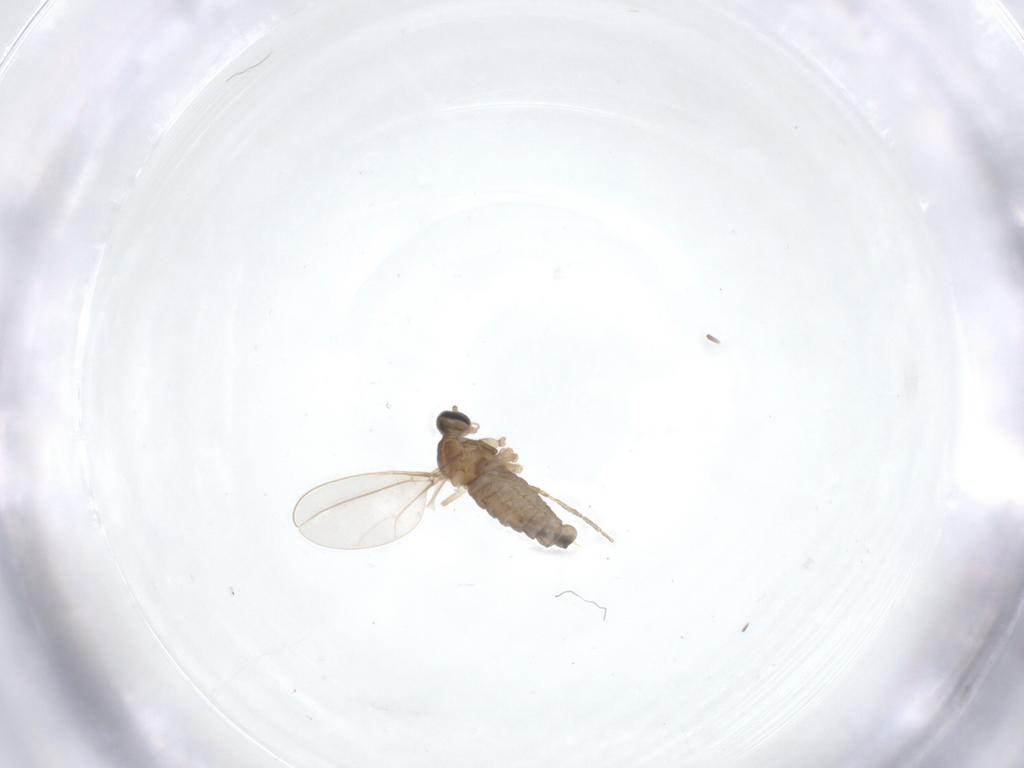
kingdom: Animalia
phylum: Arthropoda
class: Insecta
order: Diptera
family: Cecidomyiidae
